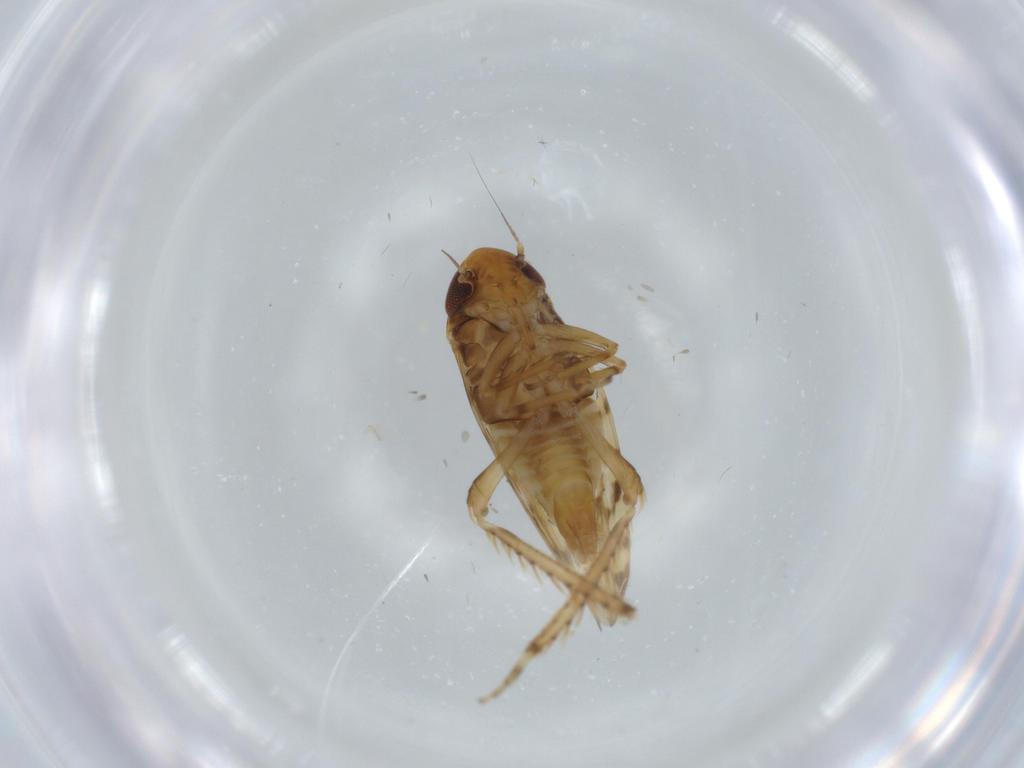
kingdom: Animalia
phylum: Arthropoda
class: Insecta
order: Hemiptera
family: Cicadellidae
